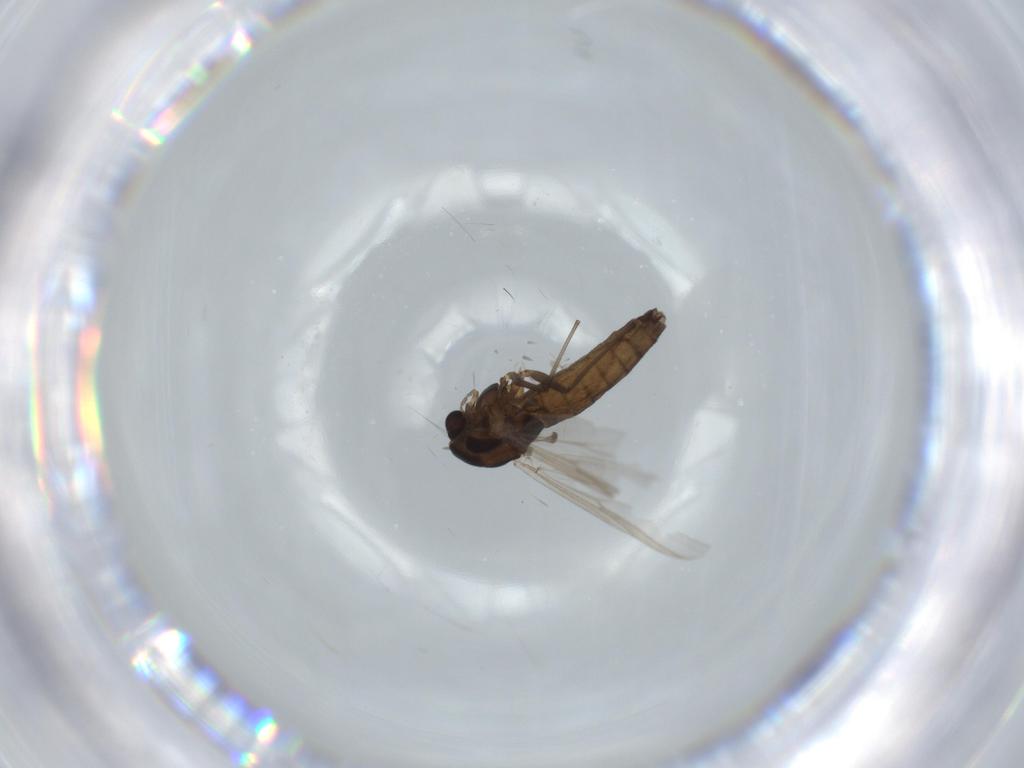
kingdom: Animalia
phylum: Arthropoda
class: Insecta
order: Diptera
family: Chironomidae
